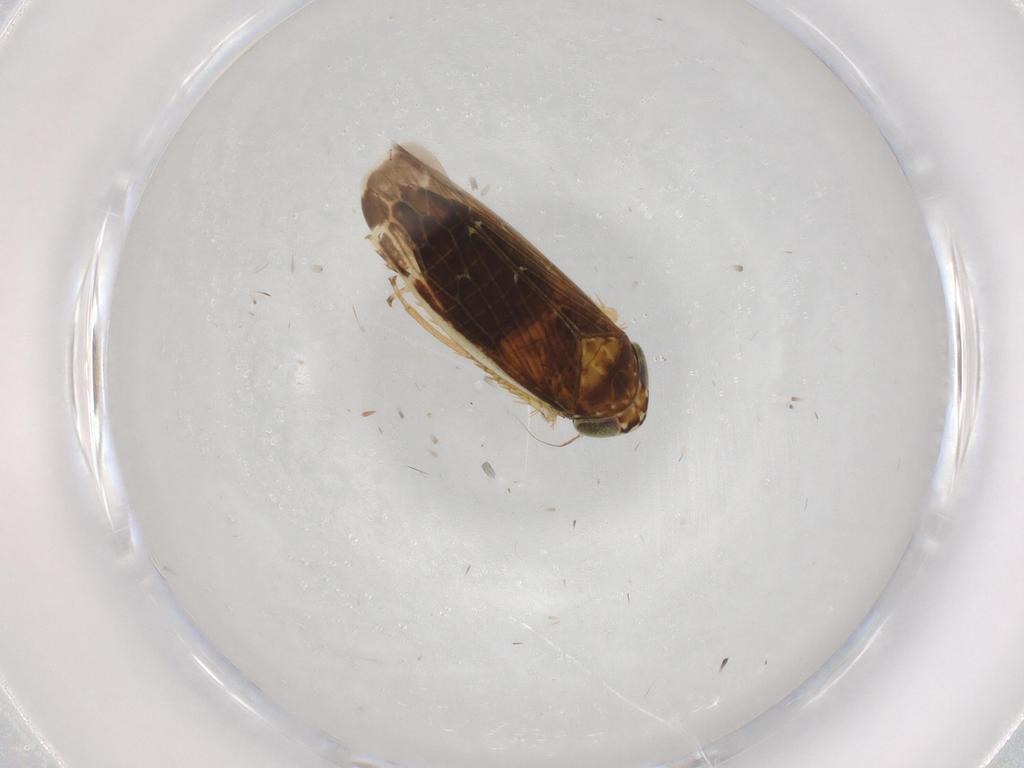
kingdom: Animalia
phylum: Arthropoda
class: Insecta
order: Hemiptera
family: Cicadellidae
